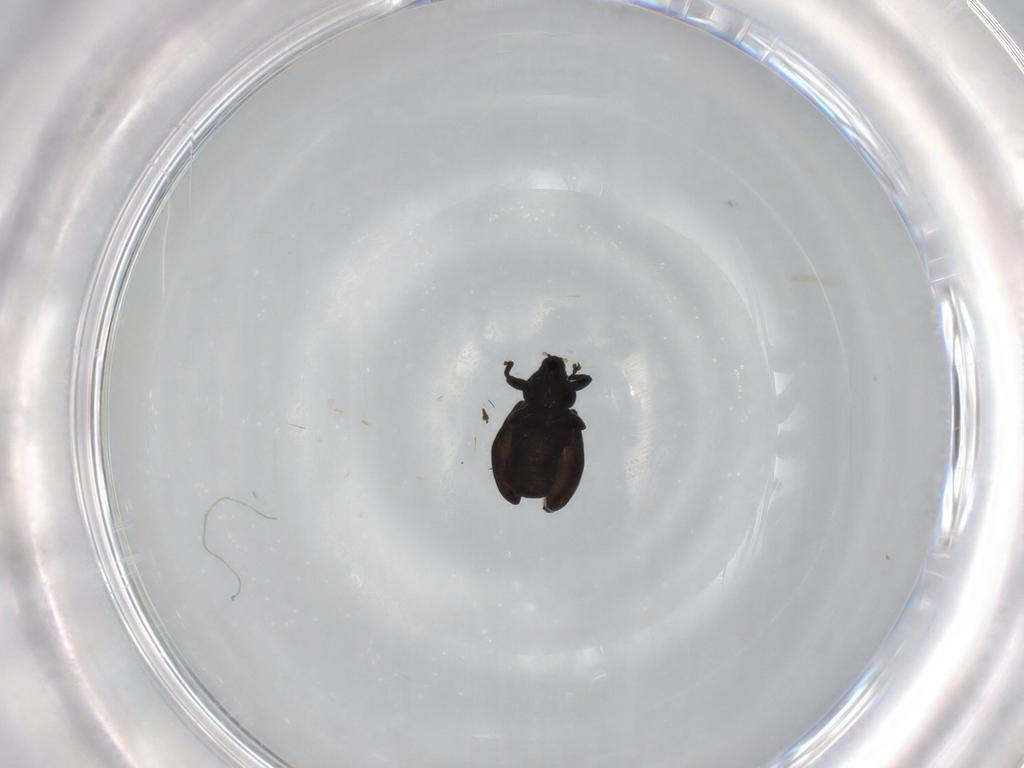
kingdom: Animalia
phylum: Arthropoda
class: Insecta
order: Coleoptera
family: Curculionidae
